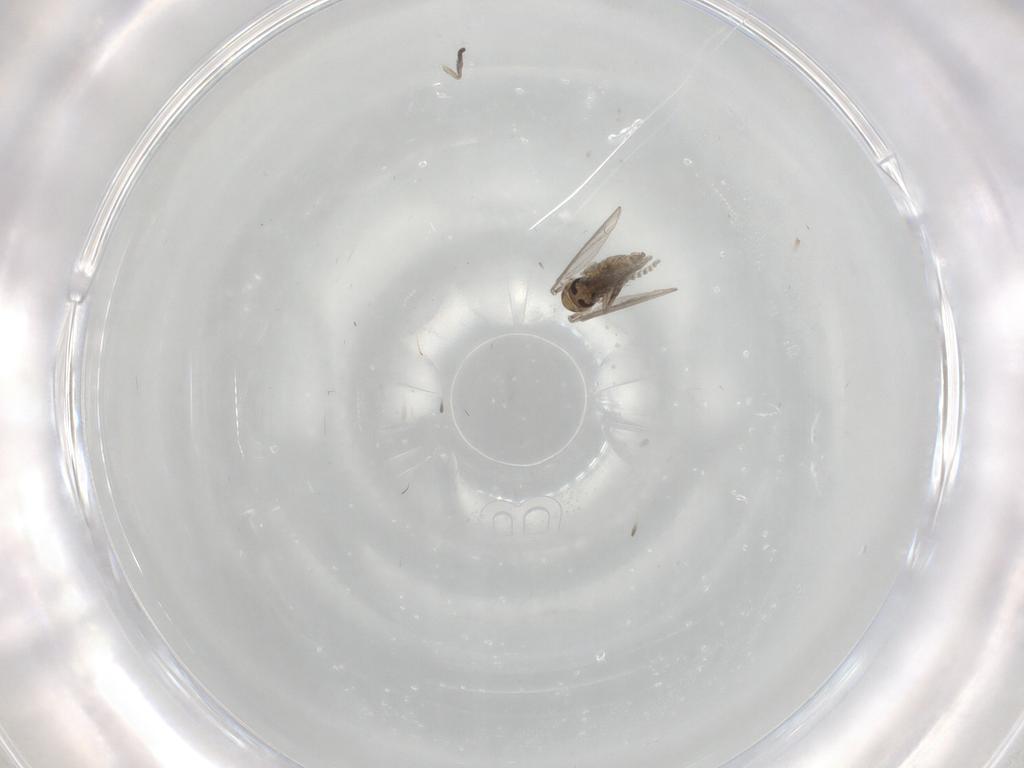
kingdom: Animalia
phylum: Arthropoda
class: Insecta
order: Diptera
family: Psychodidae
